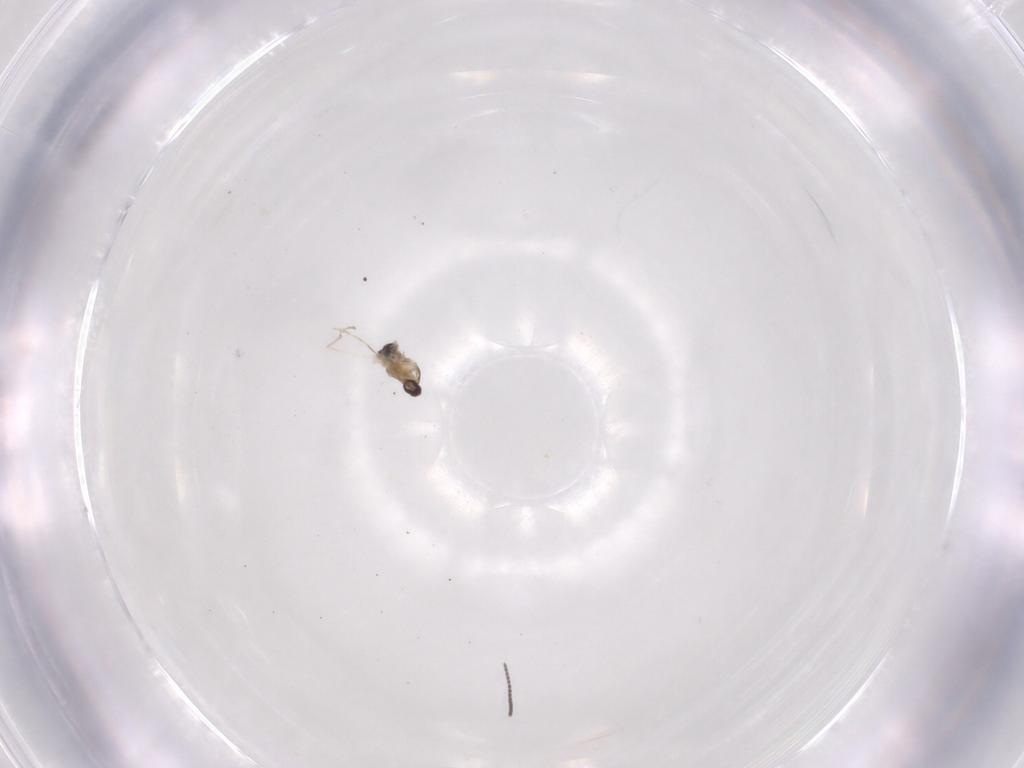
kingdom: Animalia
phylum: Arthropoda
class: Insecta
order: Diptera
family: Sciaridae
